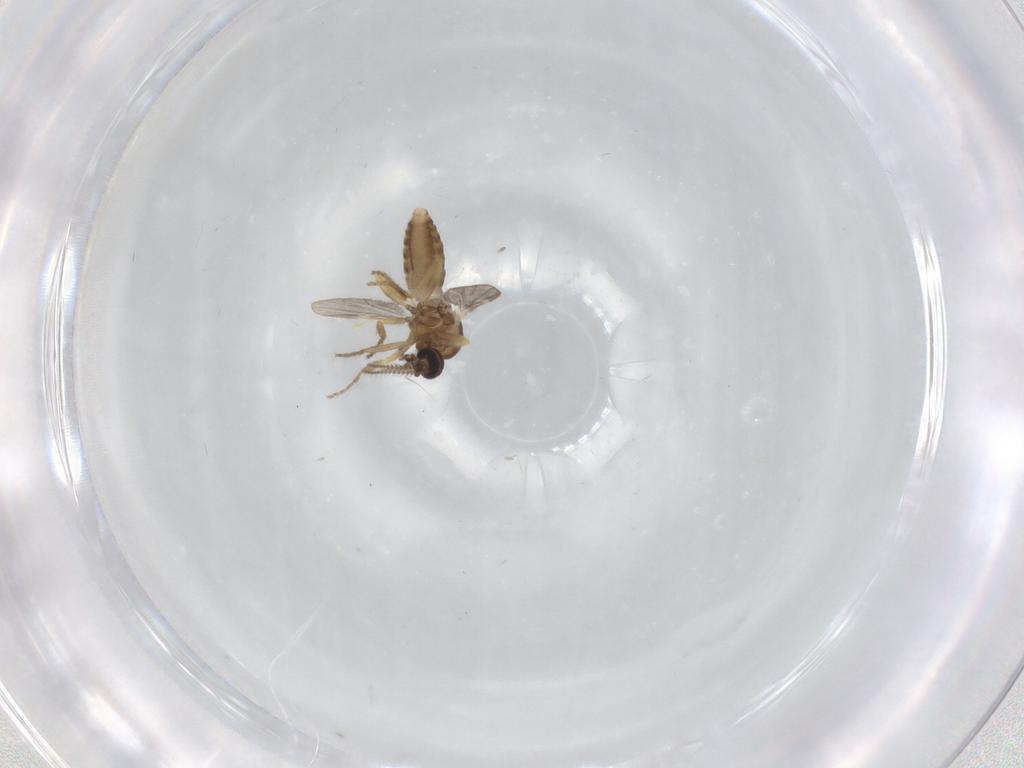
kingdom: Animalia
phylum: Arthropoda
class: Insecta
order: Diptera
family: Ceratopogonidae
